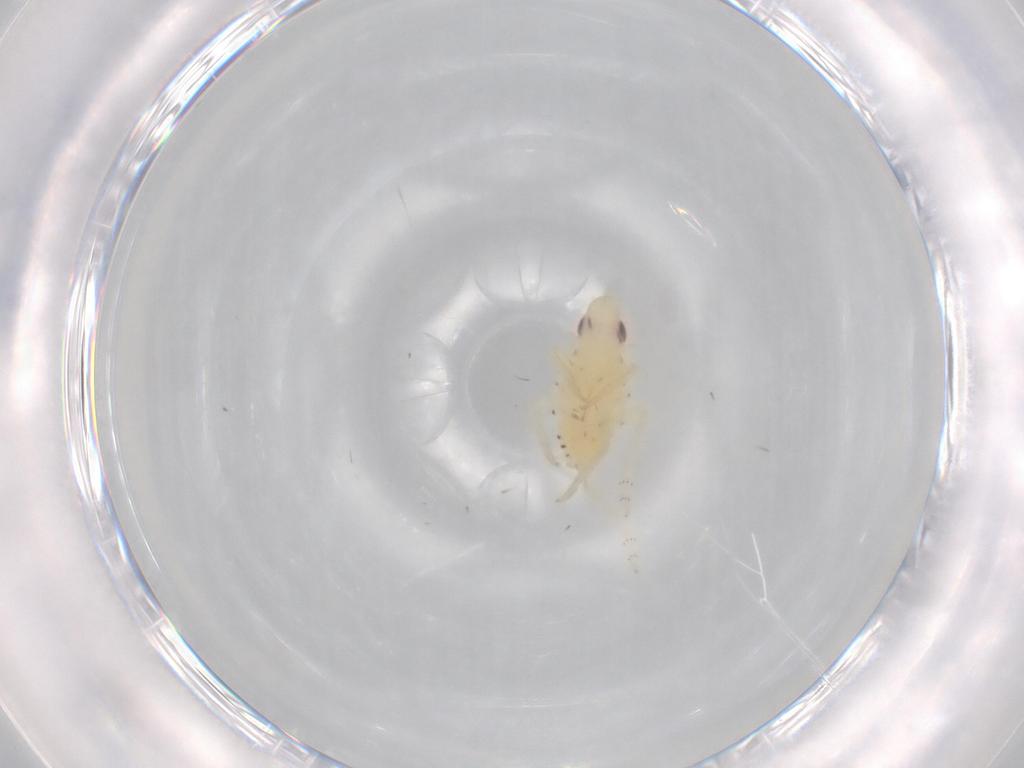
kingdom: Animalia
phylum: Arthropoda
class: Insecta
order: Hemiptera
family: Tropiduchidae
